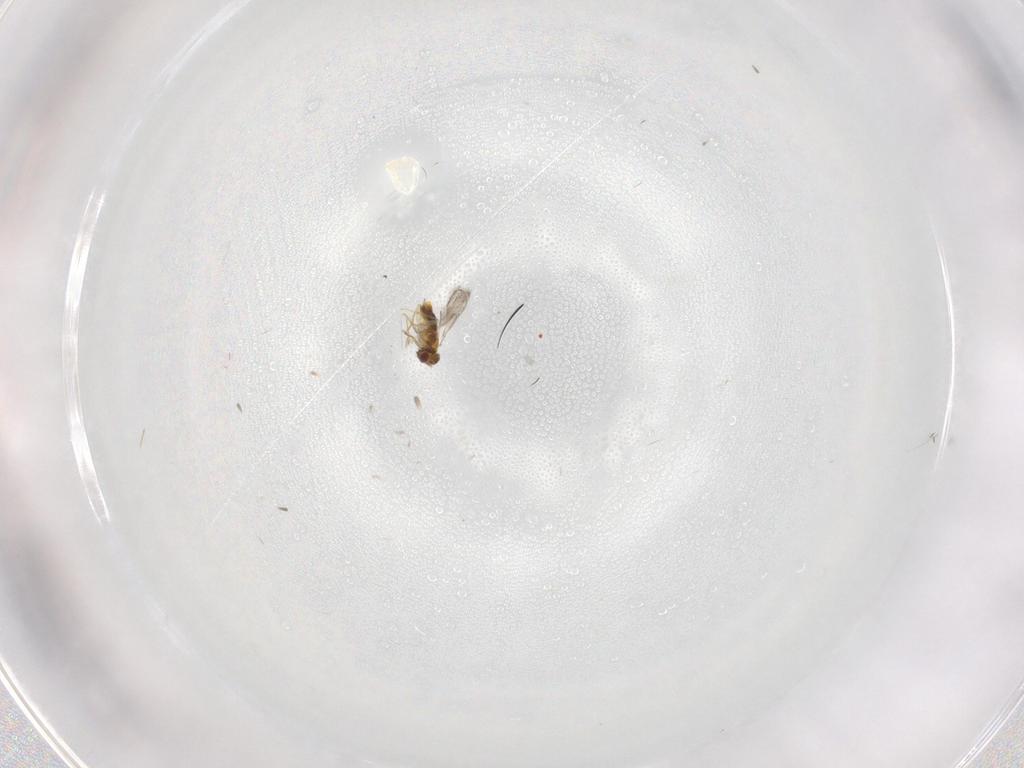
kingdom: Animalia
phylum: Arthropoda
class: Insecta
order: Hymenoptera
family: Aphelinidae
